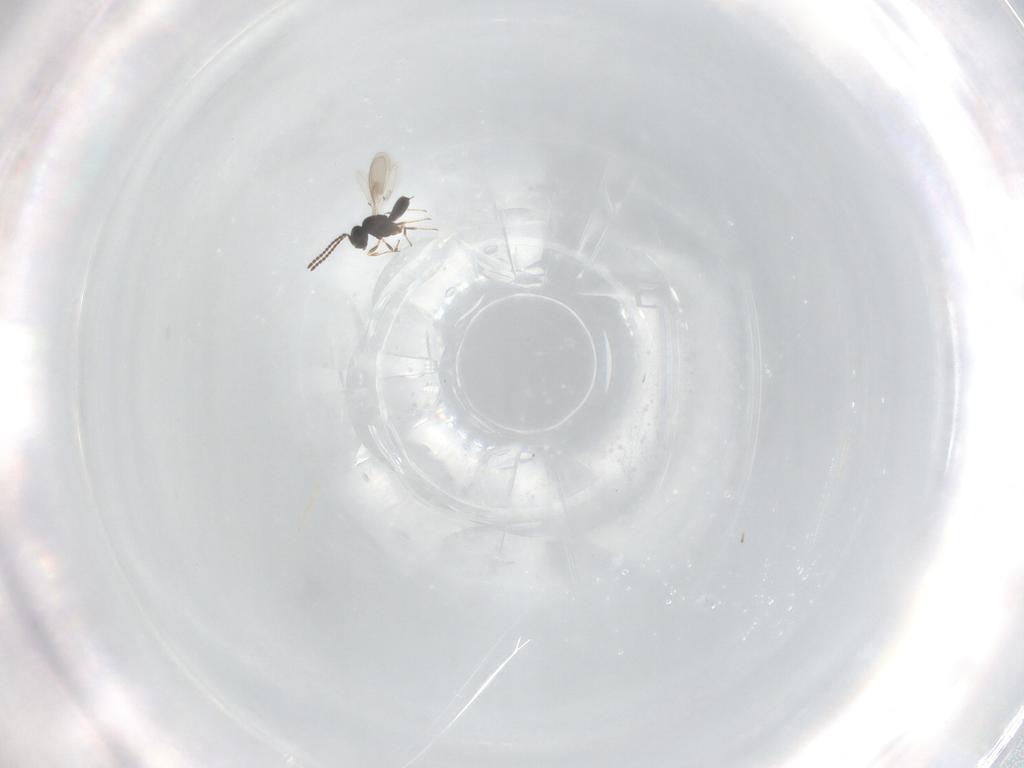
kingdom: Animalia
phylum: Arthropoda
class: Insecta
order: Hymenoptera
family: Scelionidae
